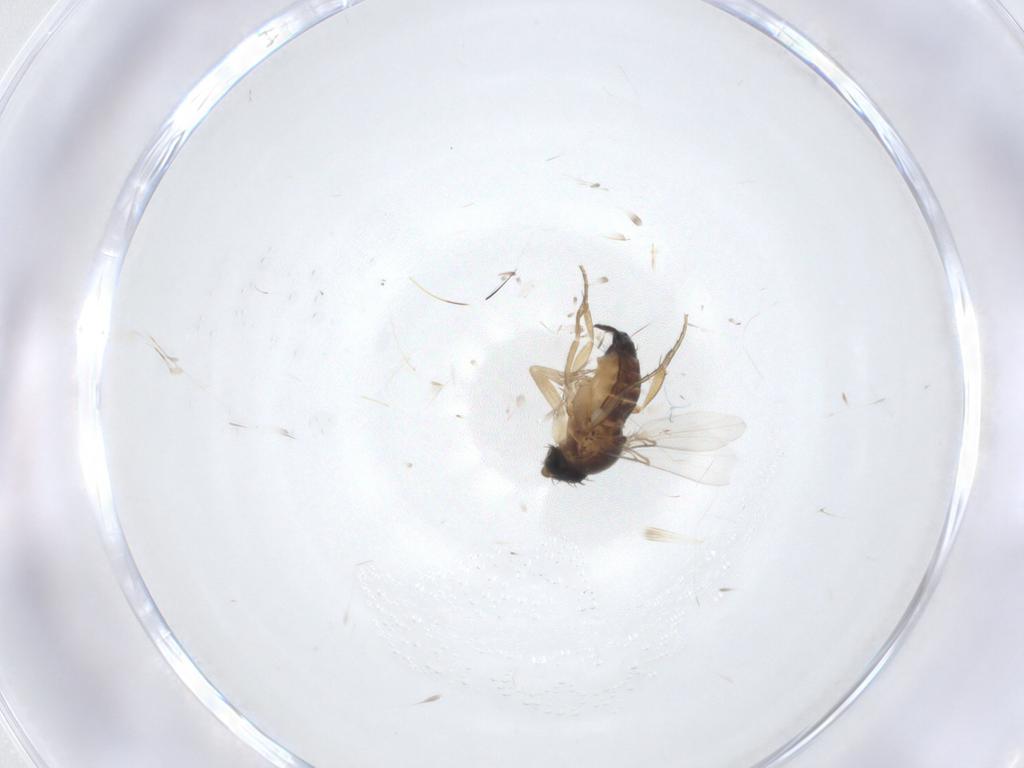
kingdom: Animalia
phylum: Arthropoda
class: Insecta
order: Diptera
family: Phoridae
